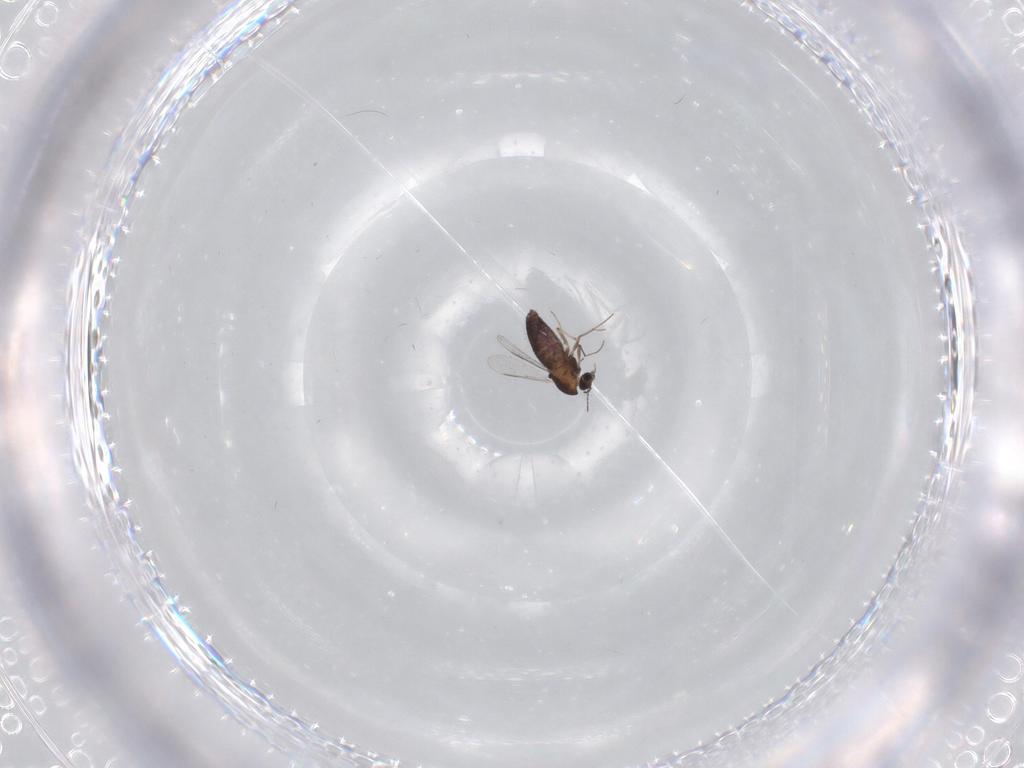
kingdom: Animalia
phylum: Arthropoda
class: Insecta
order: Diptera
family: Chironomidae
